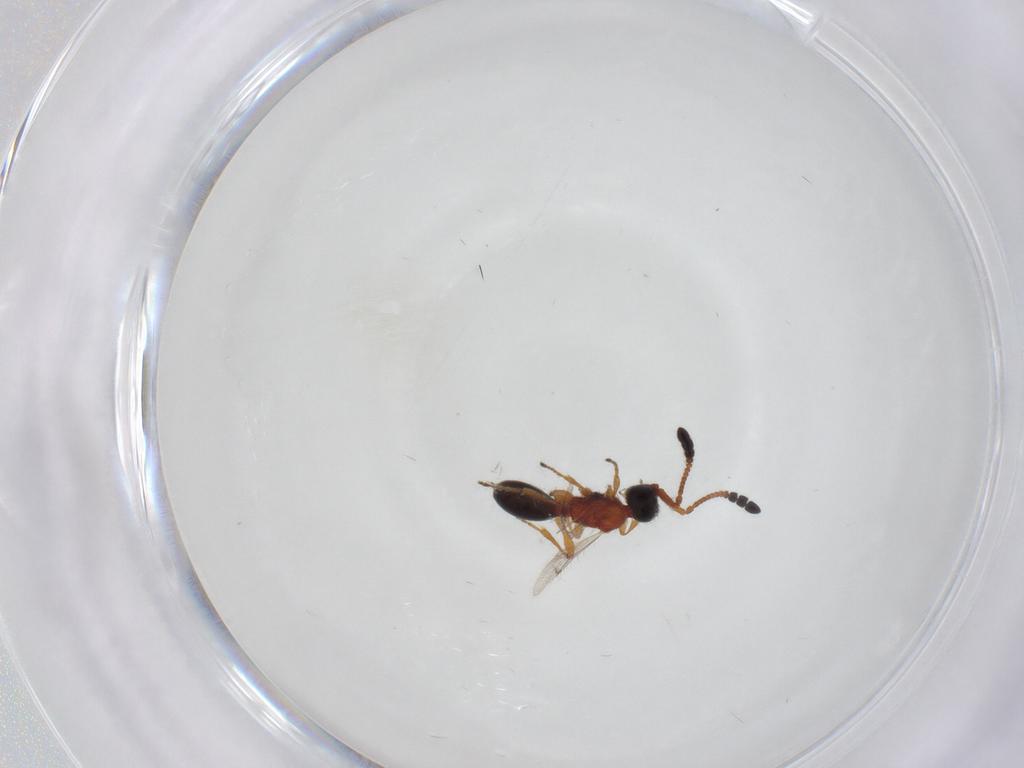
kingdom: Animalia
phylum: Arthropoda
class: Insecta
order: Hymenoptera
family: Diapriidae
